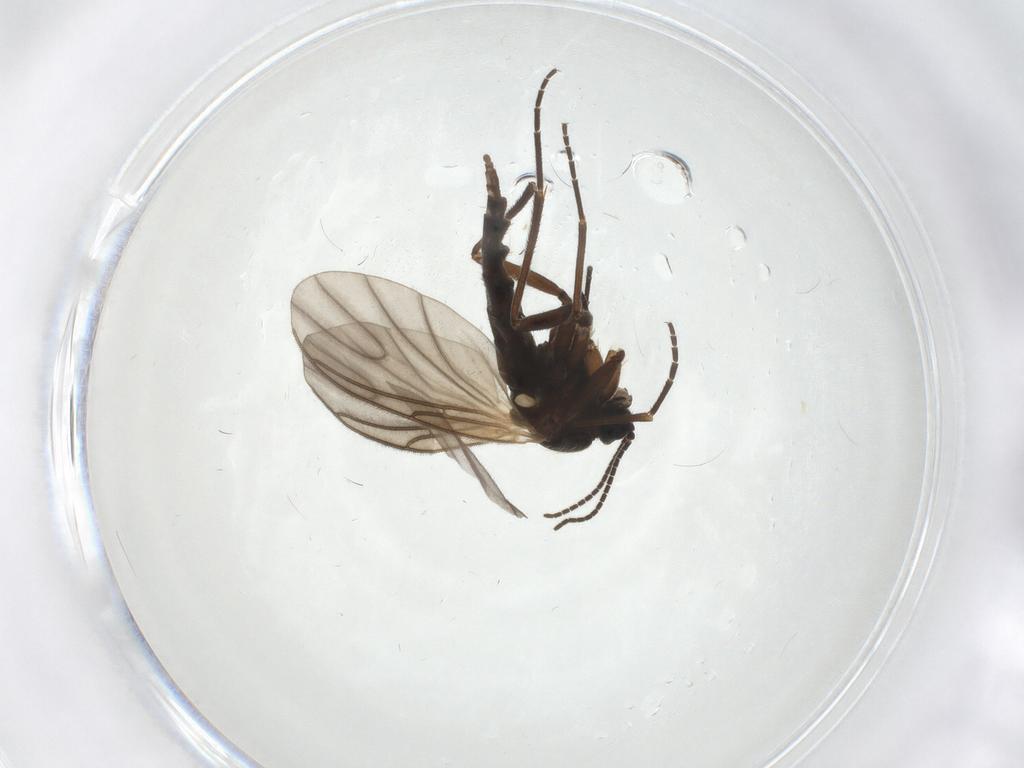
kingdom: Animalia
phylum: Arthropoda
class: Insecta
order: Diptera
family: Sciaridae
